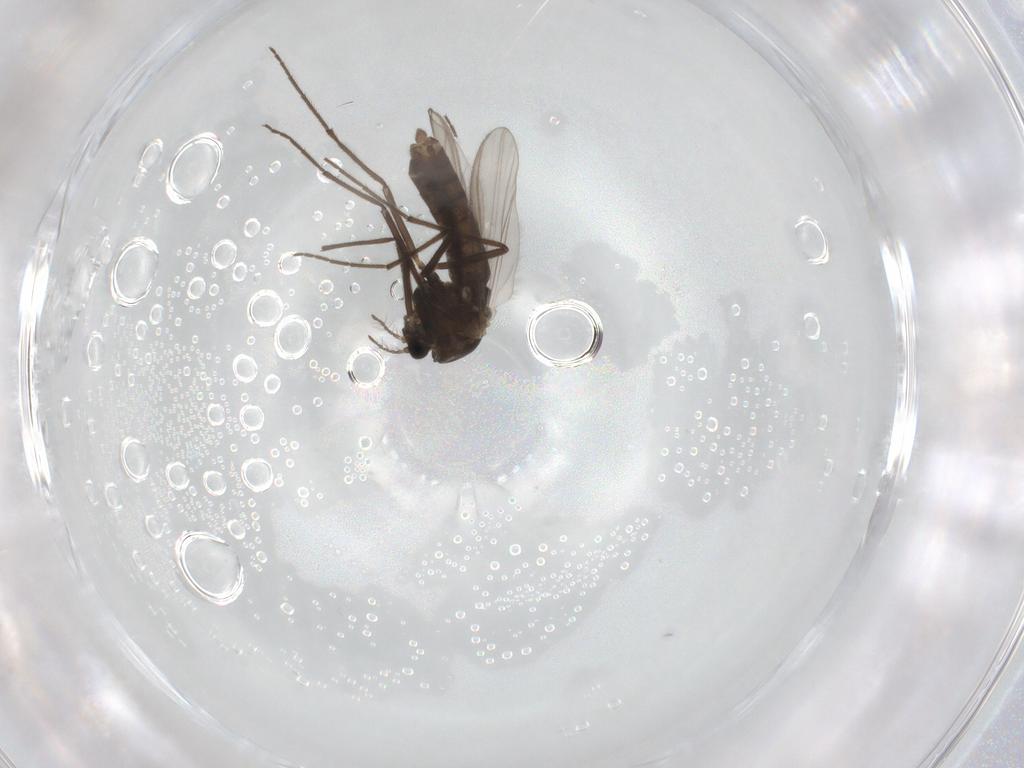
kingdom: Animalia
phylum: Arthropoda
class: Insecta
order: Diptera
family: Chironomidae
